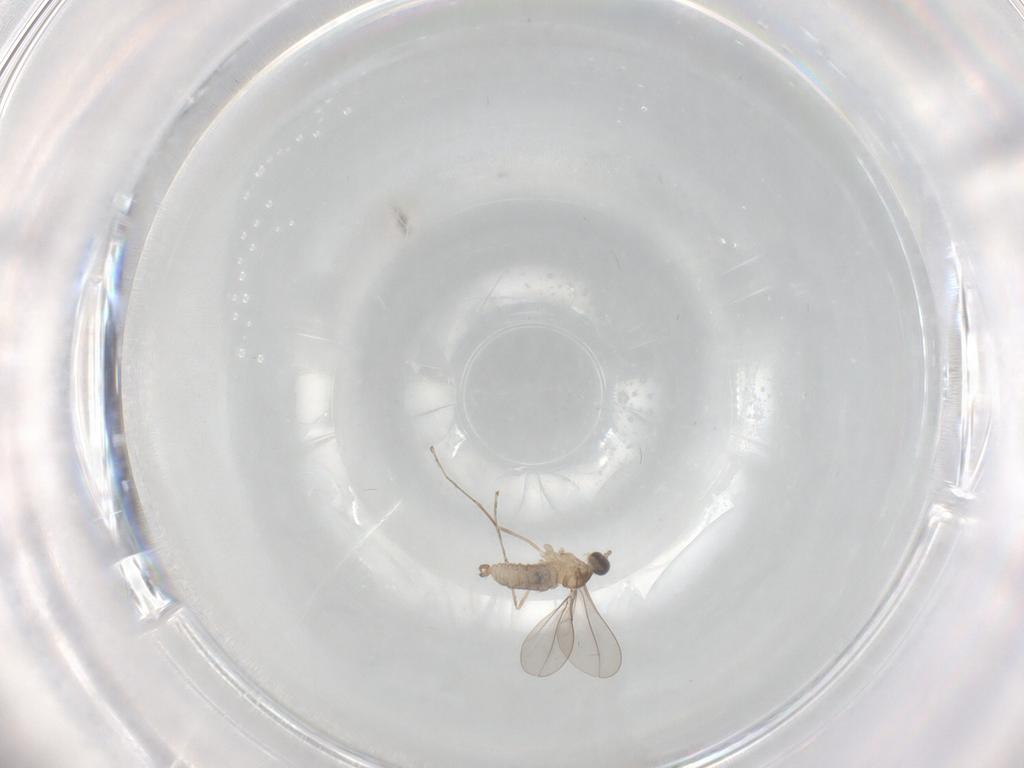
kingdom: Animalia
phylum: Arthropoda
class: Insecta
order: Diptera
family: Cecidomyiidae
